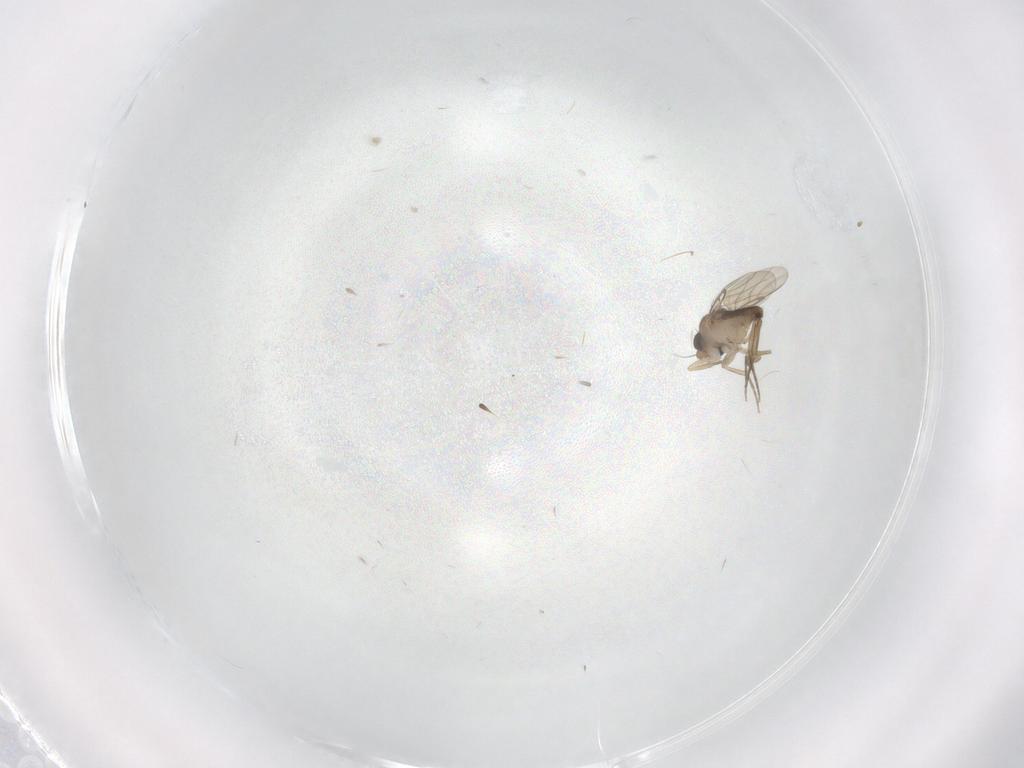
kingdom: Animalia
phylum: Arthropoda
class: Insecta
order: Diptera
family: Phoridae
